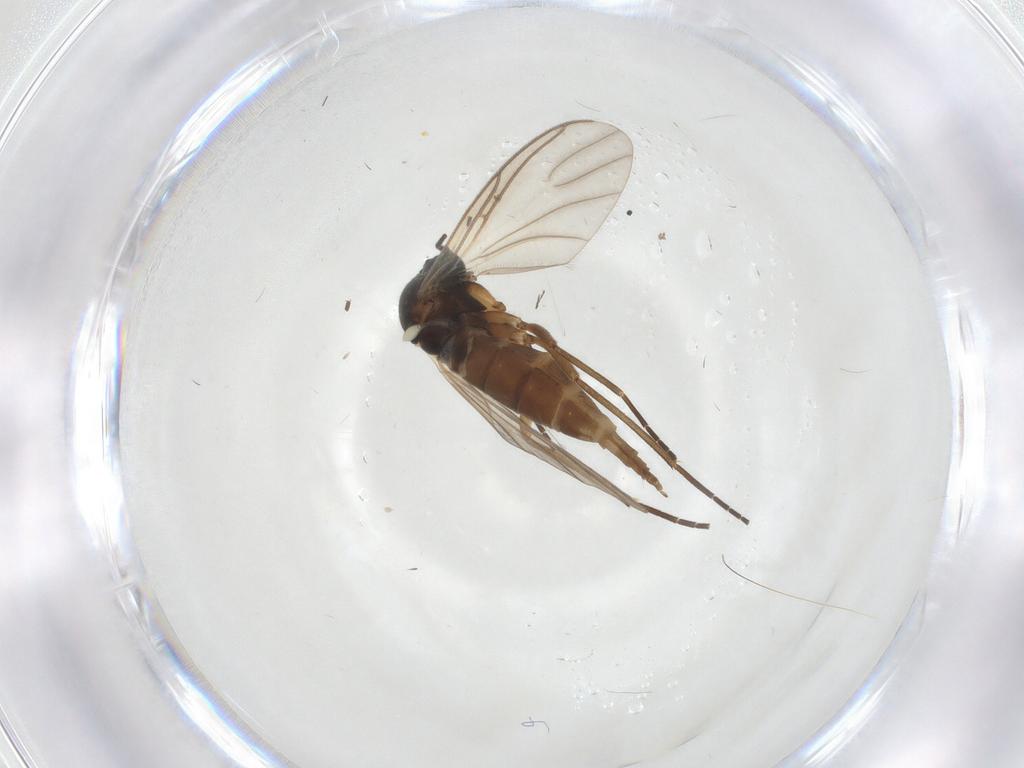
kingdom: Animalia
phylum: Arthropoda
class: Insecta
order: Diptera
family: Sciaridae
